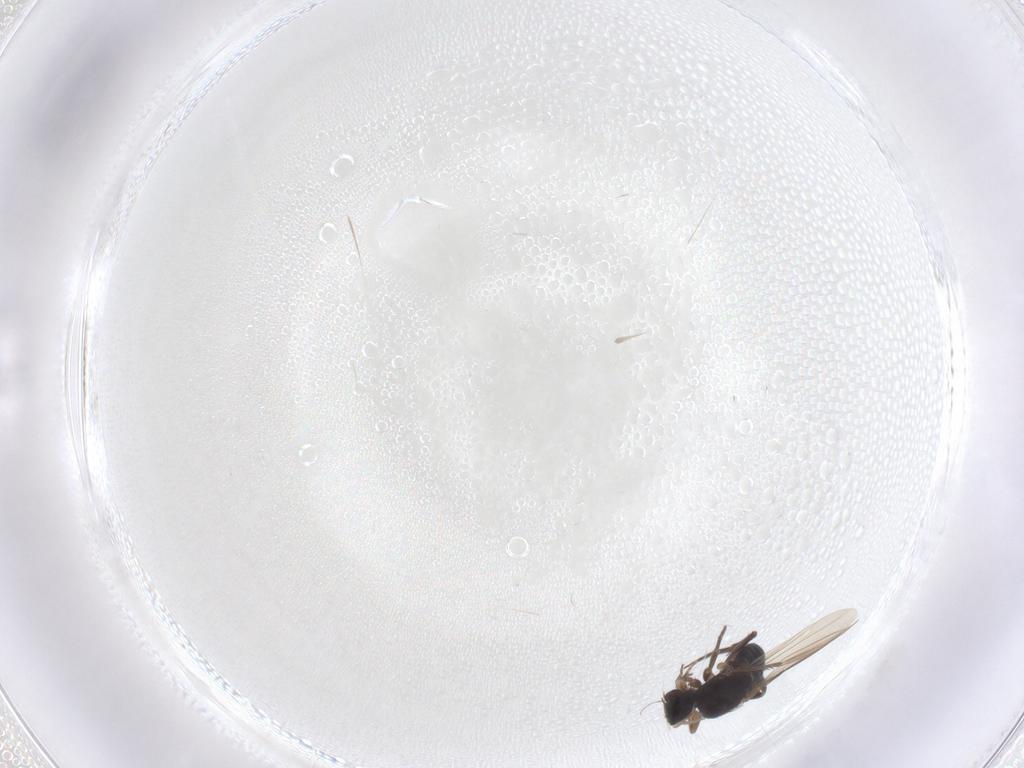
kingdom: Animalia
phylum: Arthropoda
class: Insecta
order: Diptera
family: Phoridae
